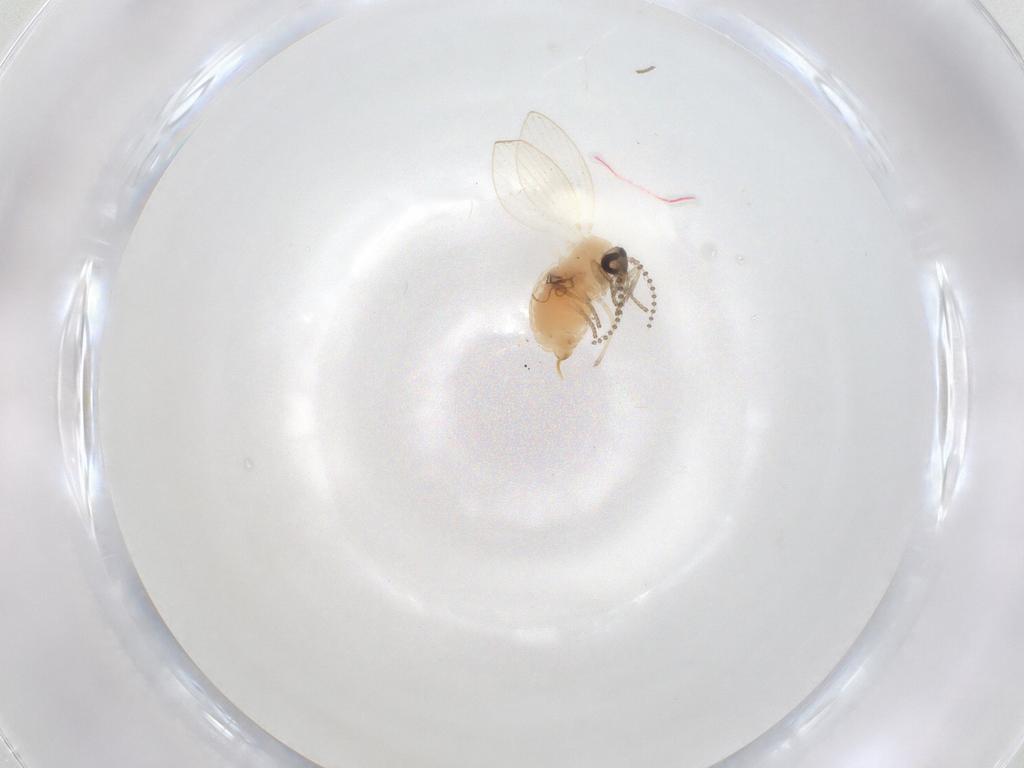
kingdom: Animalia
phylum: Arthropoda
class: Insecta
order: Diptera
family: Psychodidae
